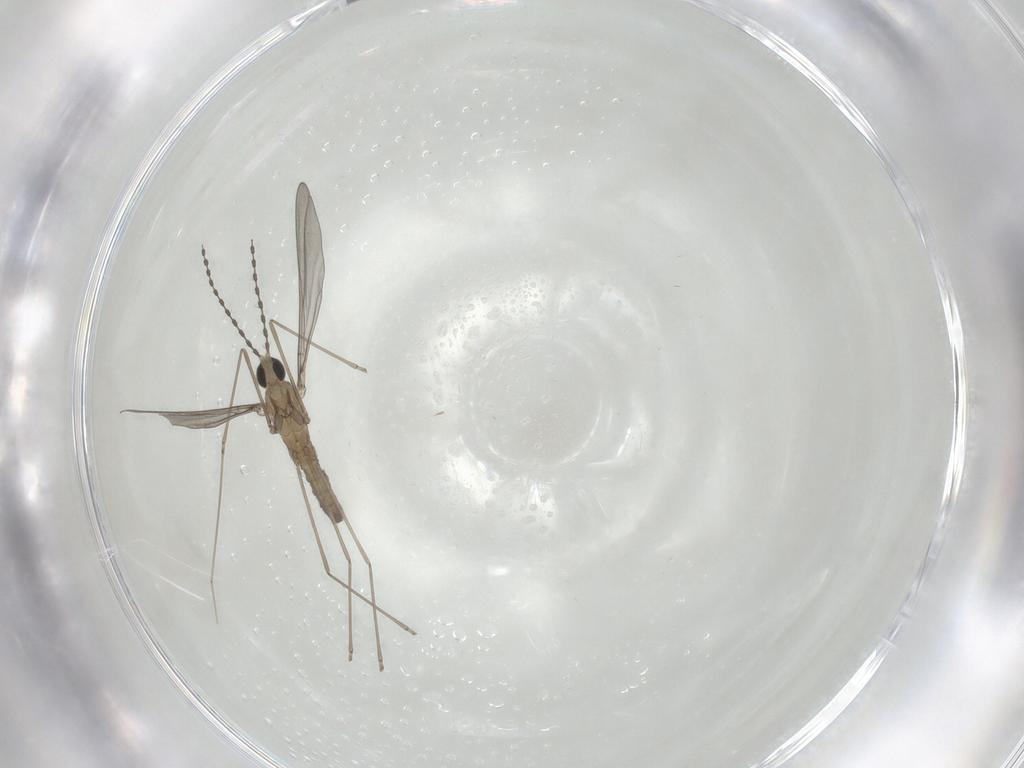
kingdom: Animalia
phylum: Arthropoda
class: Insecta
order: Diptera
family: Cecidomyiidae
